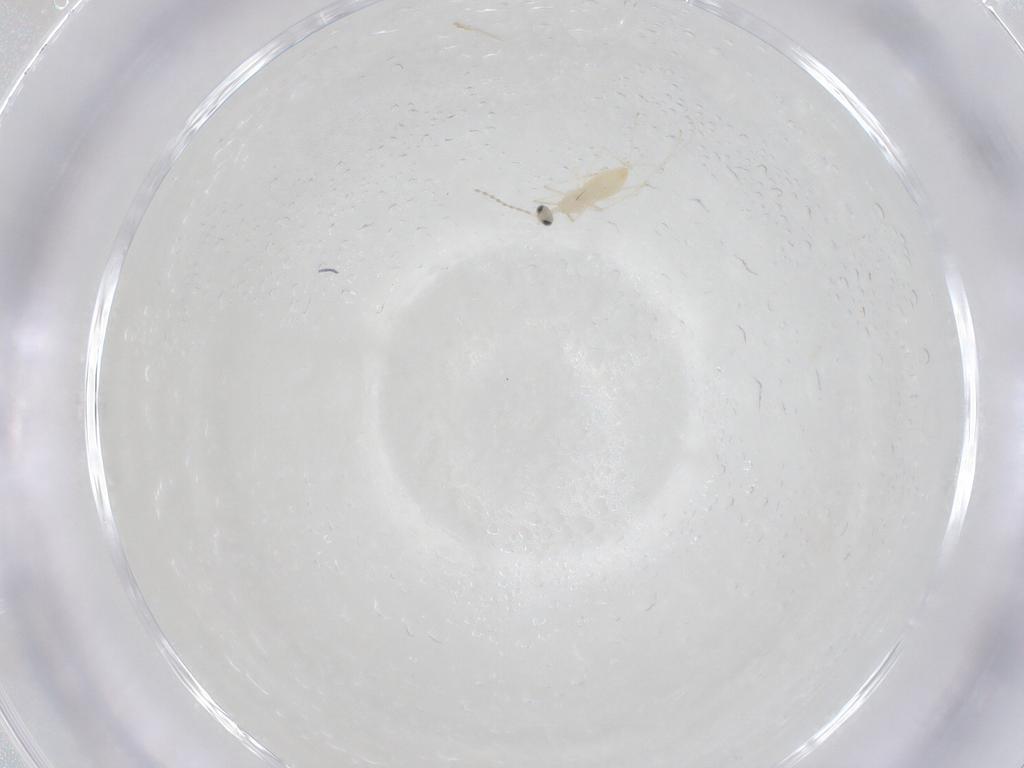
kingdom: Animalia
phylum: Arthropoda
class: Insecta
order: Diptera
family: Cecidomyiidae
